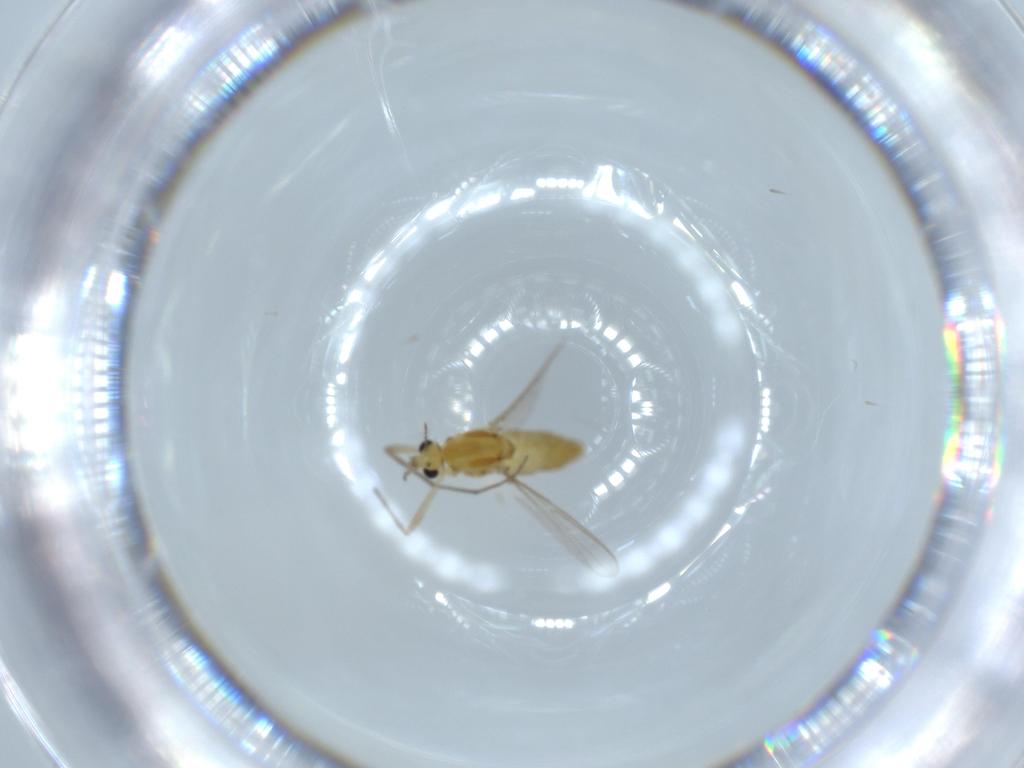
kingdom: Animalia
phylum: Arthropoda
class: Insecta
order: Diptera
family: Chironomidae
